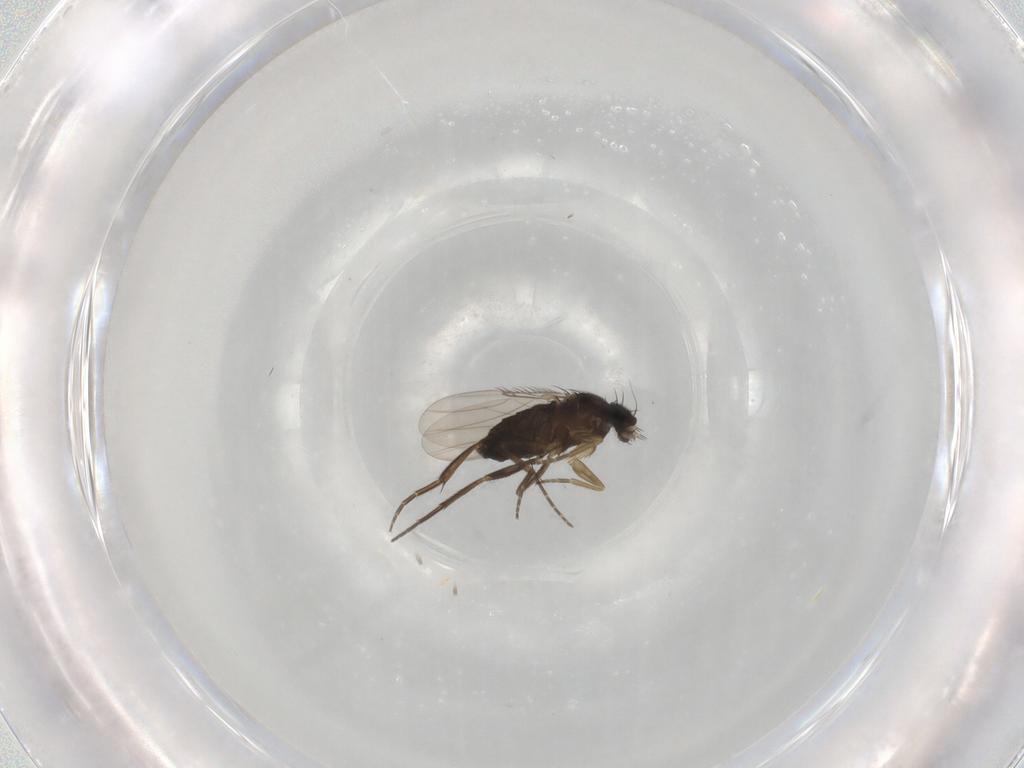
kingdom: Animalia
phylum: Arthropoda
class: Insecta
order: Diptera
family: Phoridae
